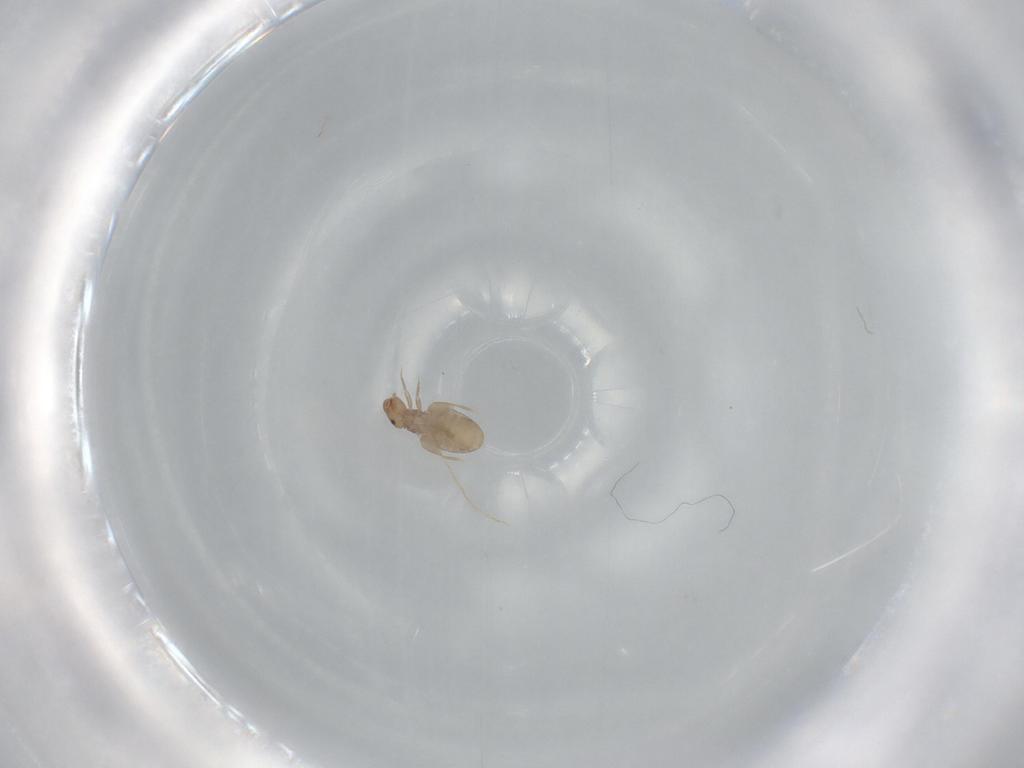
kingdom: Animalia
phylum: Arthropoda
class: Insecta
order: Psocodea
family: Liposcelididae
